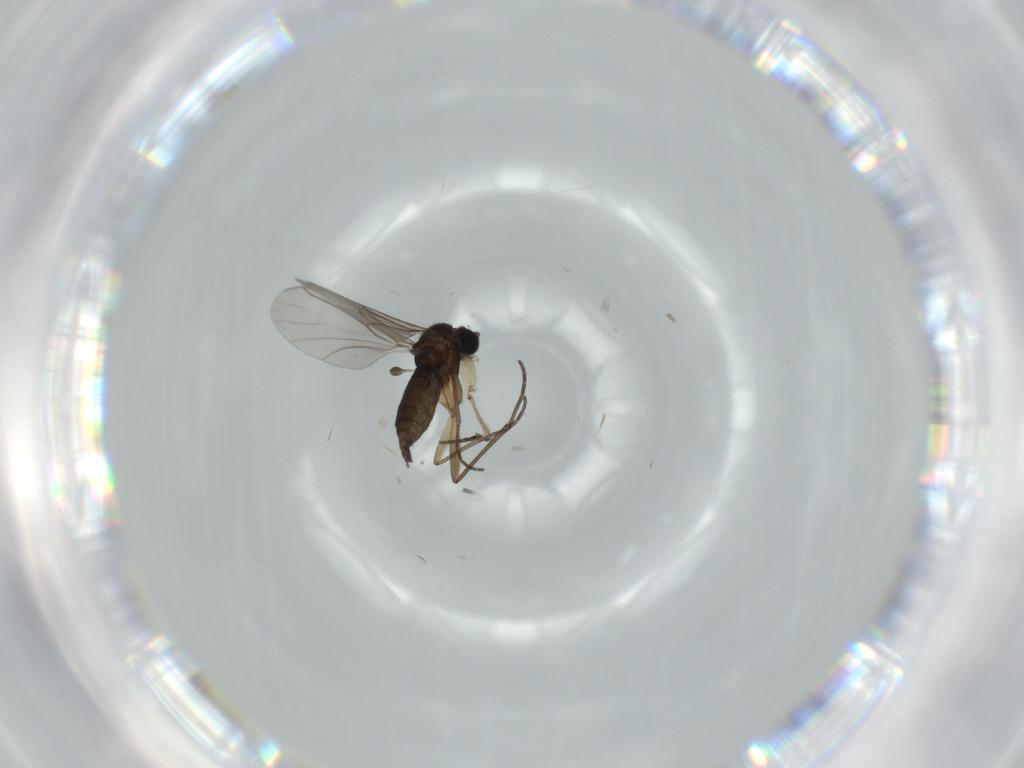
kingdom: Animalia
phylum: Arthropoda
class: Insecta
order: Diptera
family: Sciaridae
